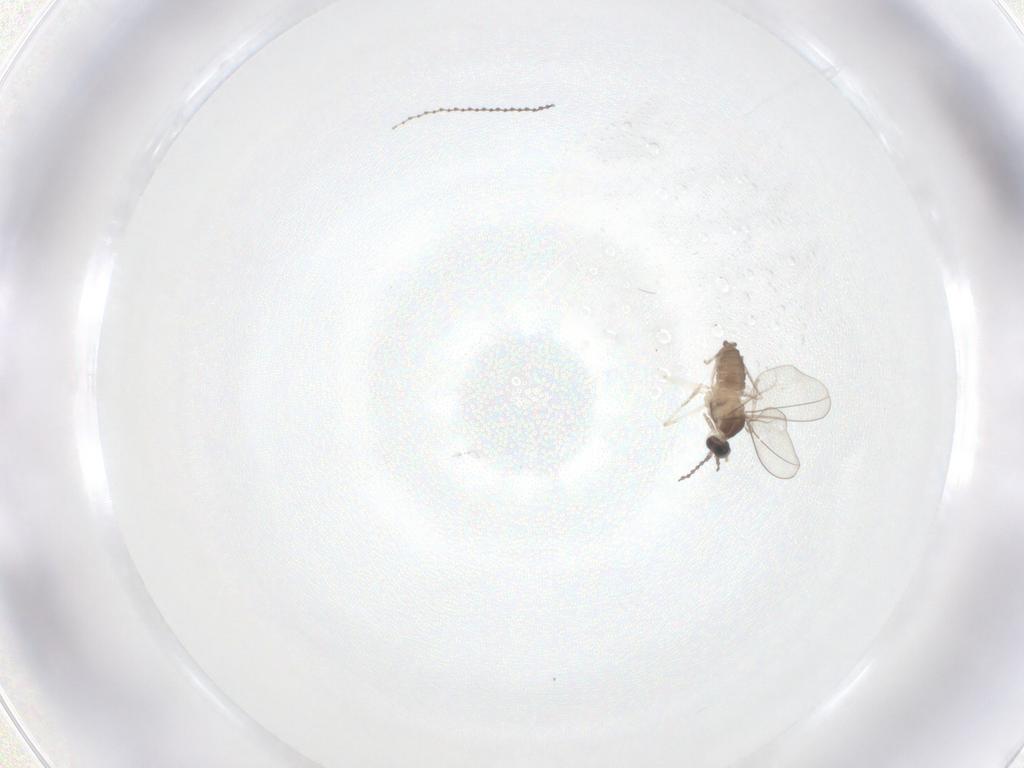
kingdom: Animalia
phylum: Arthropoda
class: Insecta
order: Diptera
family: Cecidomyiidae
